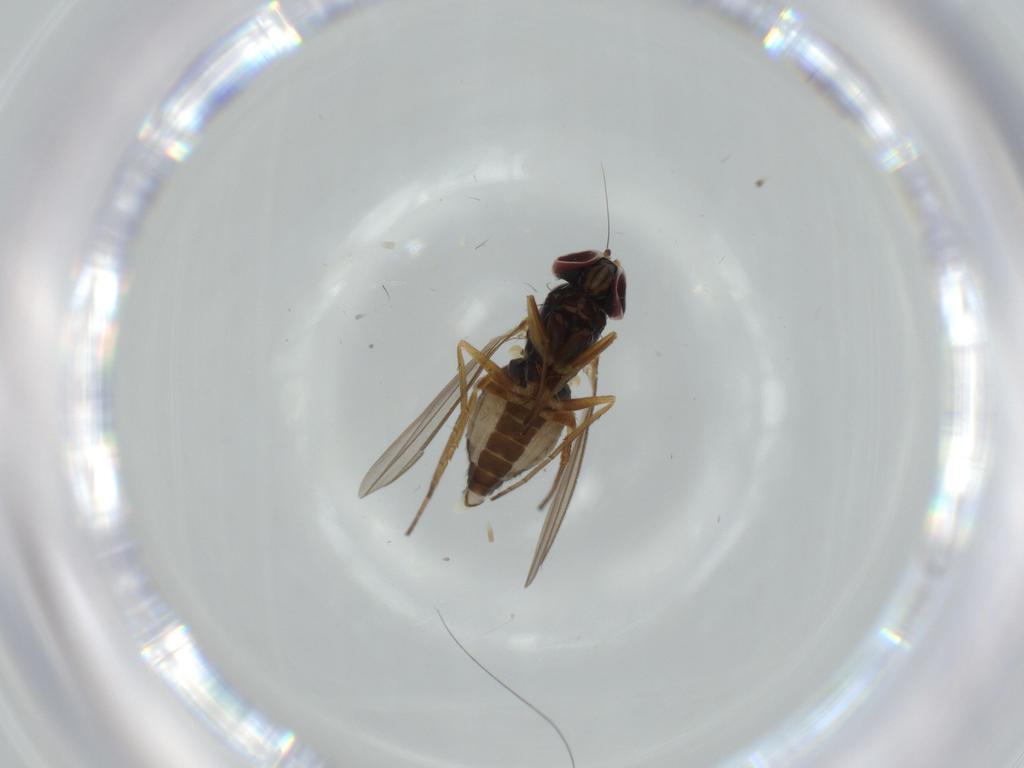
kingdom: Animalia
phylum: Arthropoda
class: Insecta
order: Diptera
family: Dolichopodidae
